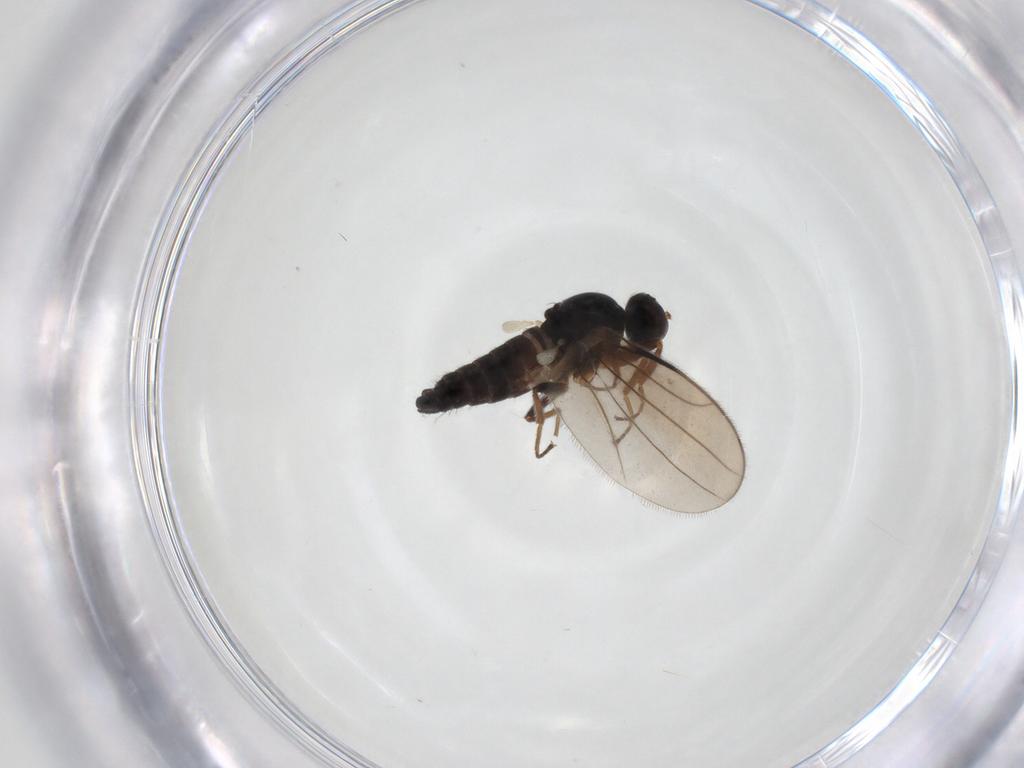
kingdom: Animalia
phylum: Arthropoda
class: Insecta
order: Diptera
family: Hybotidae
